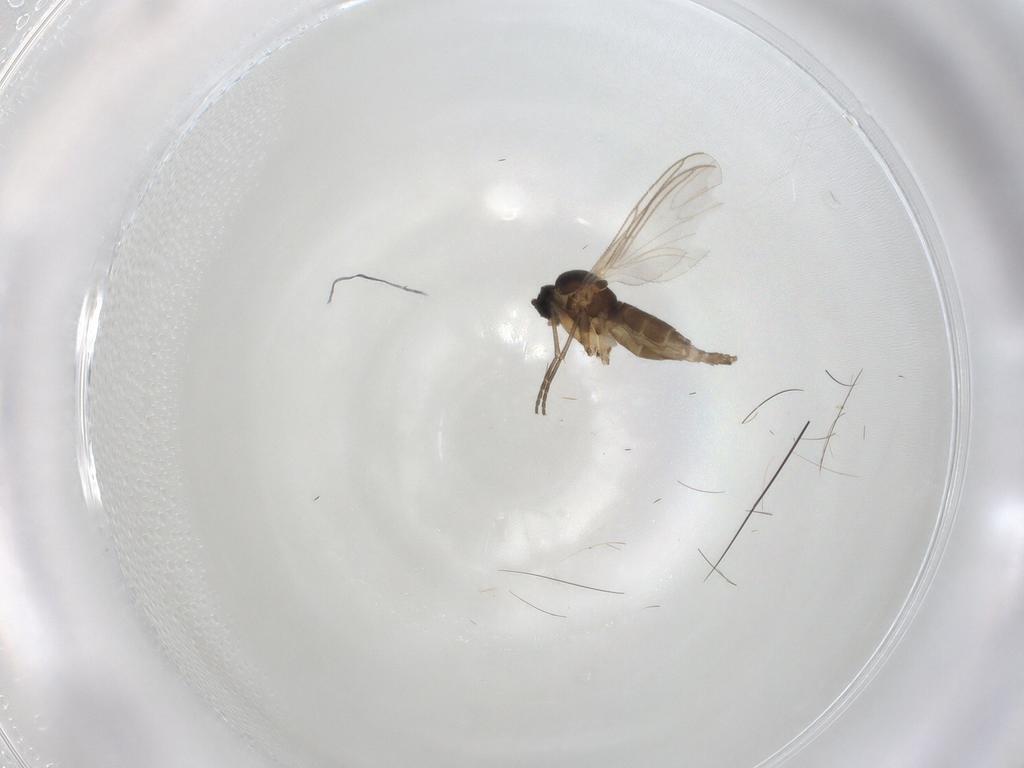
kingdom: Animalia
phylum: Arthropoda
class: Insecta
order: Diptera
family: Sciaridae
